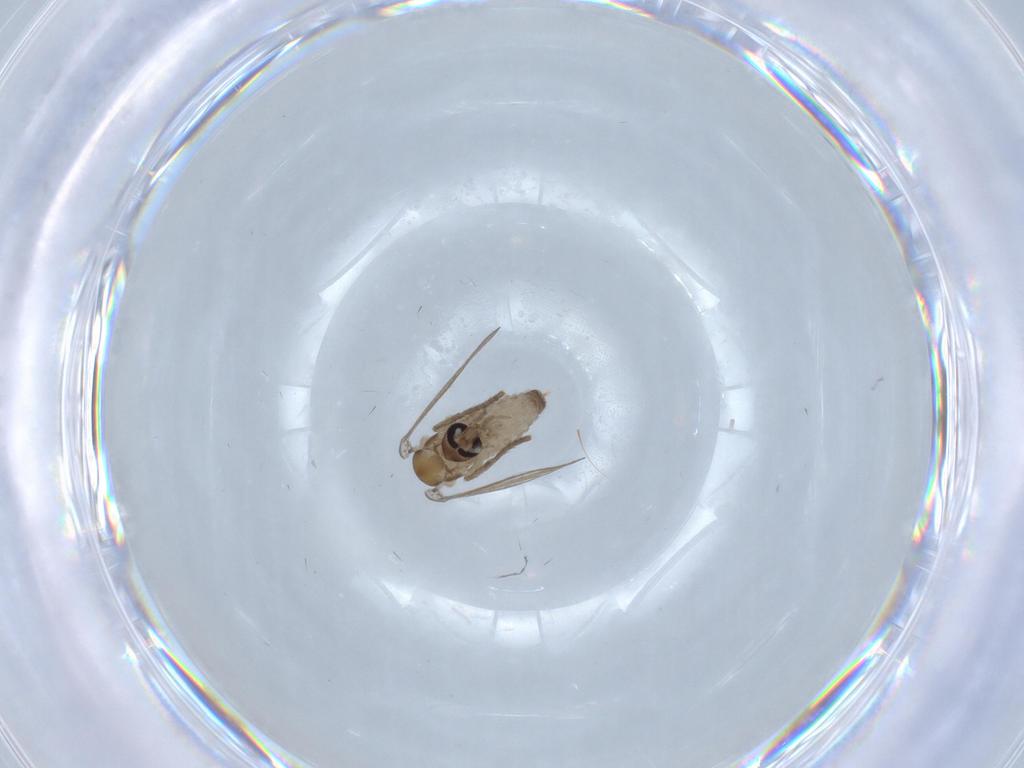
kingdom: Animalia
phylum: Arthropoda
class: Insecta
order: Diptera
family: Psychodidae
